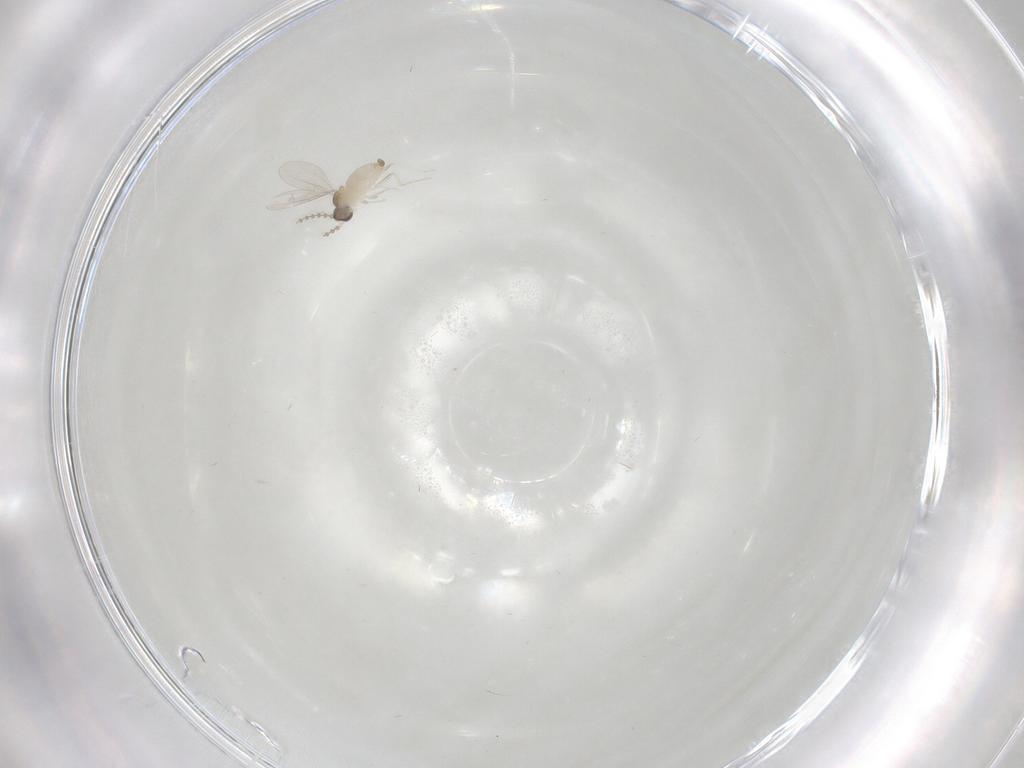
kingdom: Animalia
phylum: Arthropoda
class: Insecta
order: Diptera
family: Cecidomyiidae
